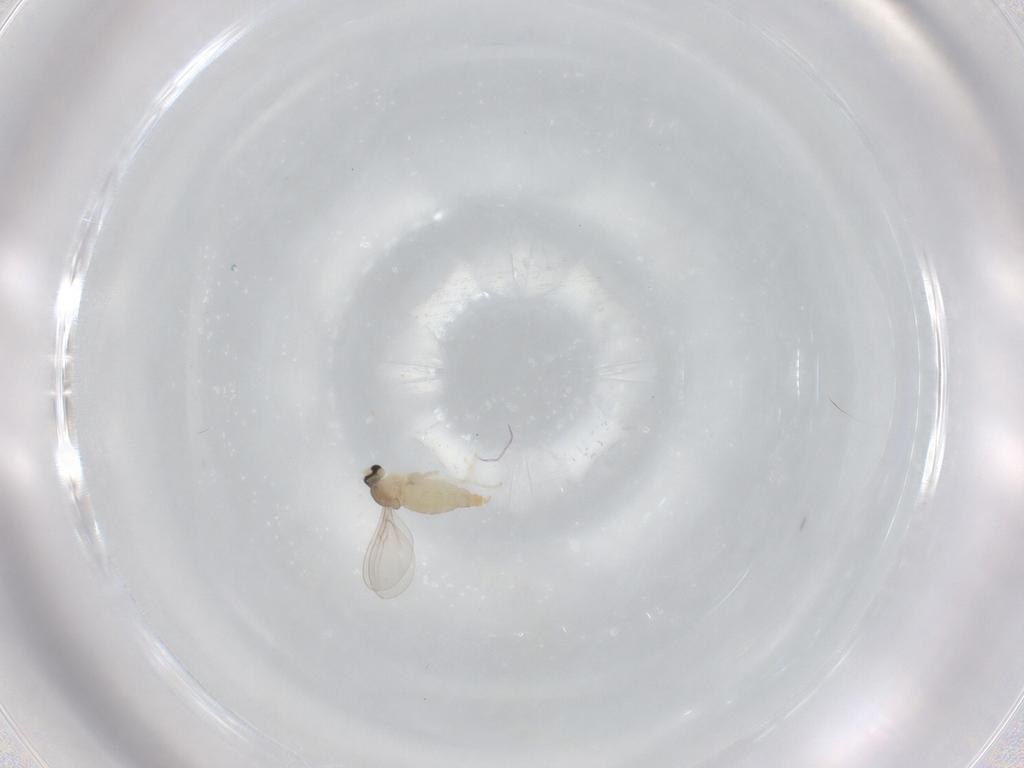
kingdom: Animalia
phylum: Arthropoda
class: Insecta
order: Diptera
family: Cecidomyiidae
